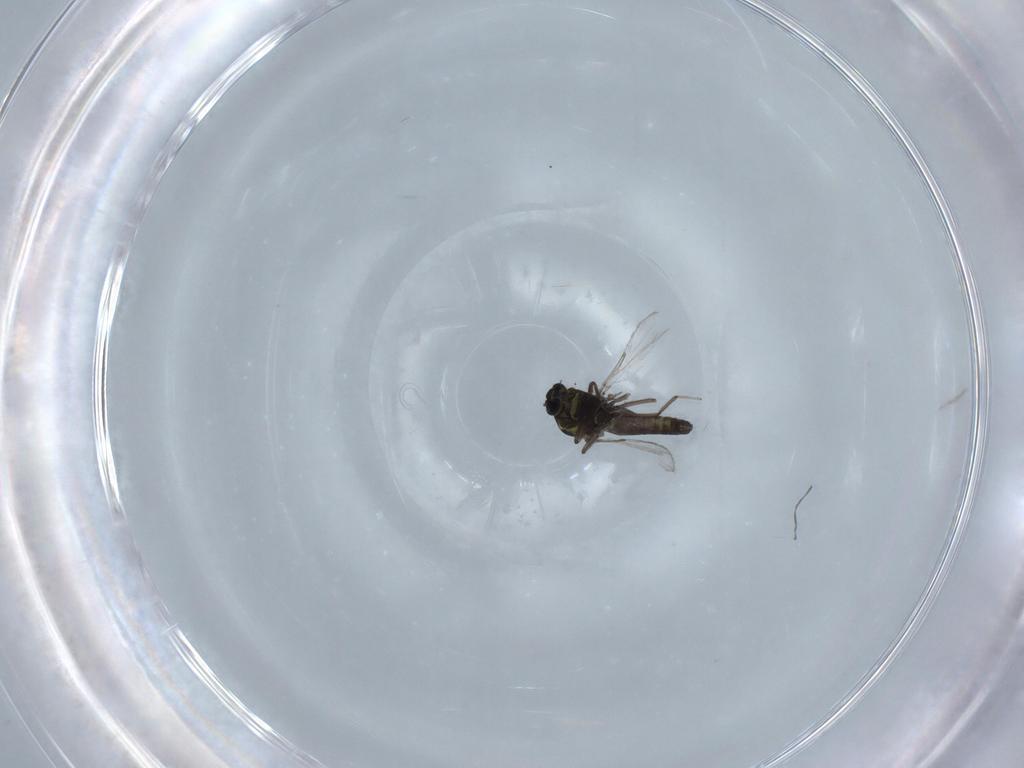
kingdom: Animalia
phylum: Arthropoda
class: Insecta
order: Diptera
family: Ceratopogonidae
